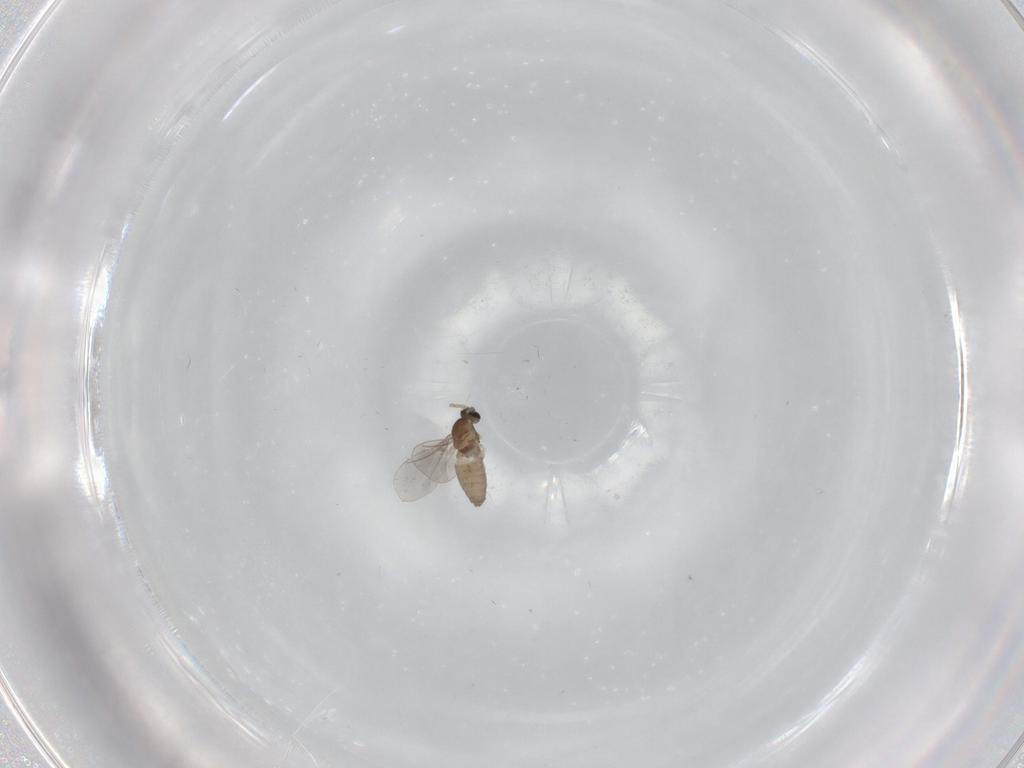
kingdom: Animalia
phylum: Arthropoda
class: Insecta
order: Diptera
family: Cecidomyiidae
